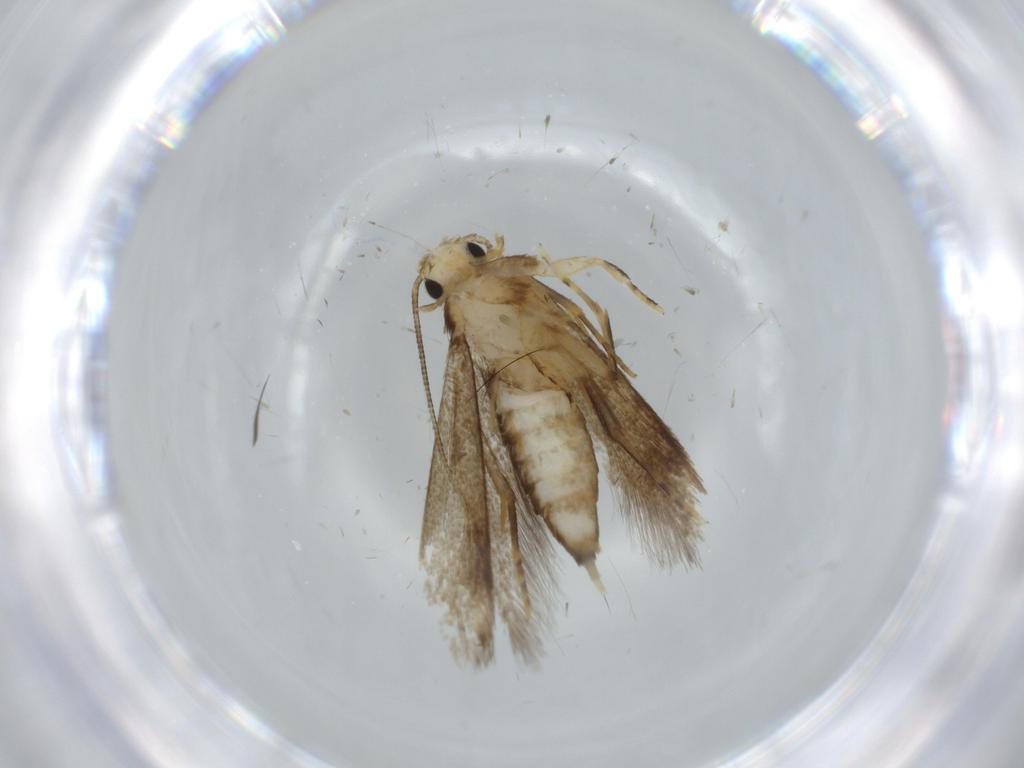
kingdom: Animalia
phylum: Arthropoda
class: Insecta
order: Lepidoptera
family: Tineidae
